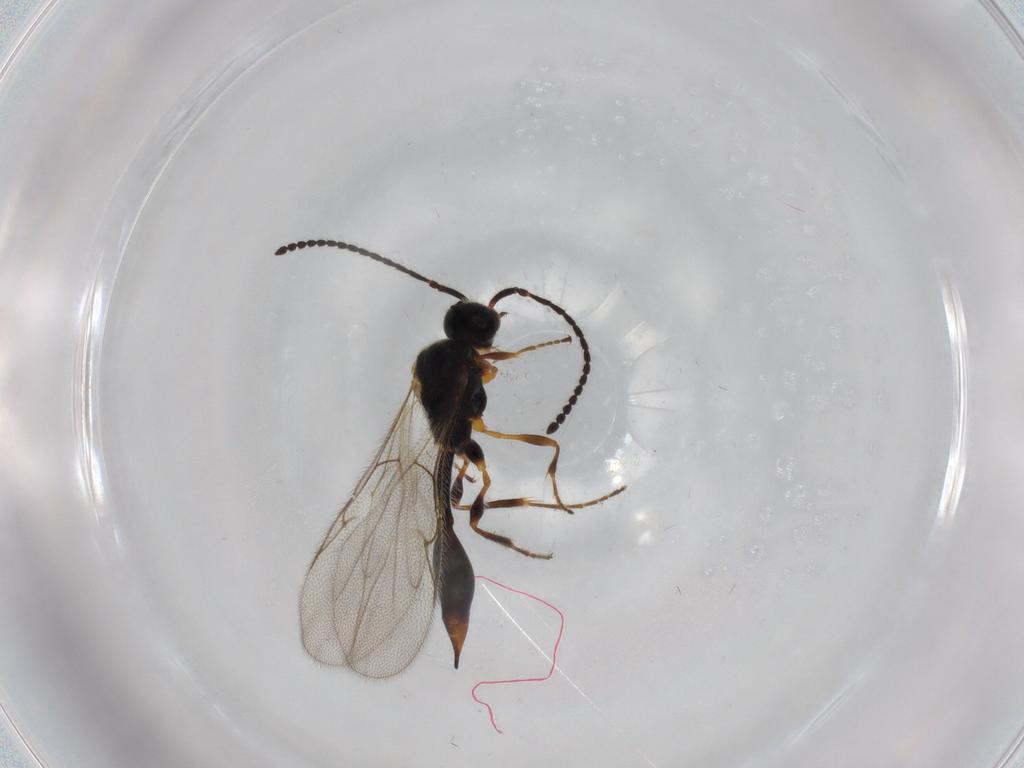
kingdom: Animalia
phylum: Arthropoda
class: Insecta
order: Hymenoptera
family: Diapriidae
